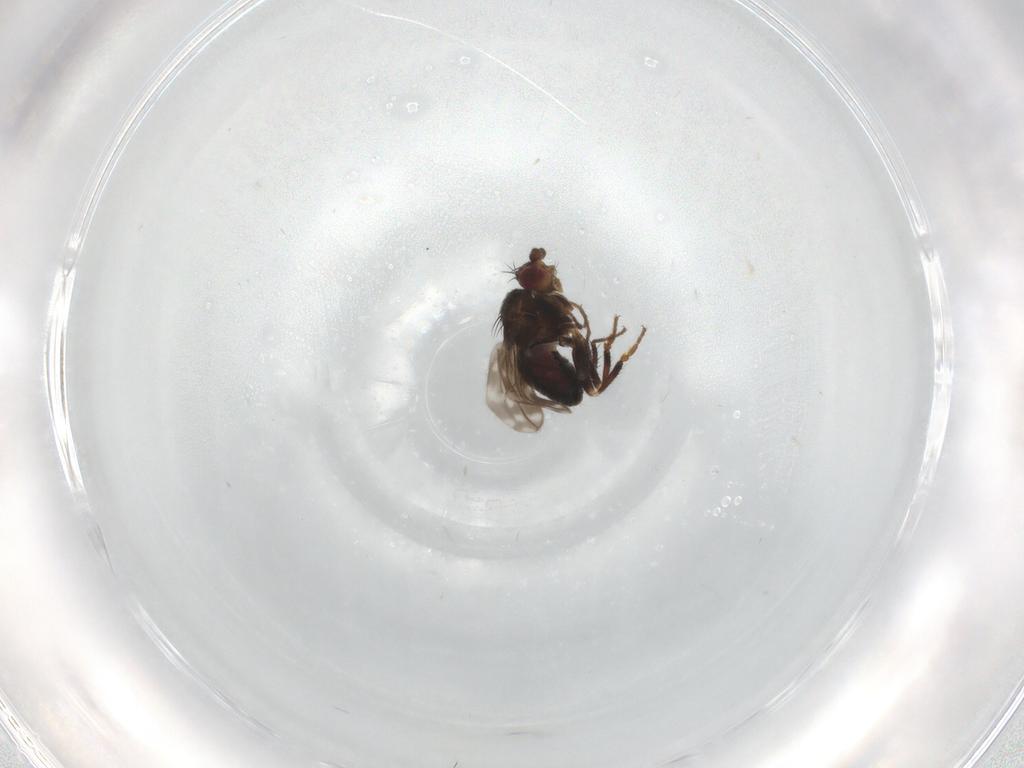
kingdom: Animalia
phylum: Arthropoda
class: Insecta
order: Diptera
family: Sphaeroceridae
